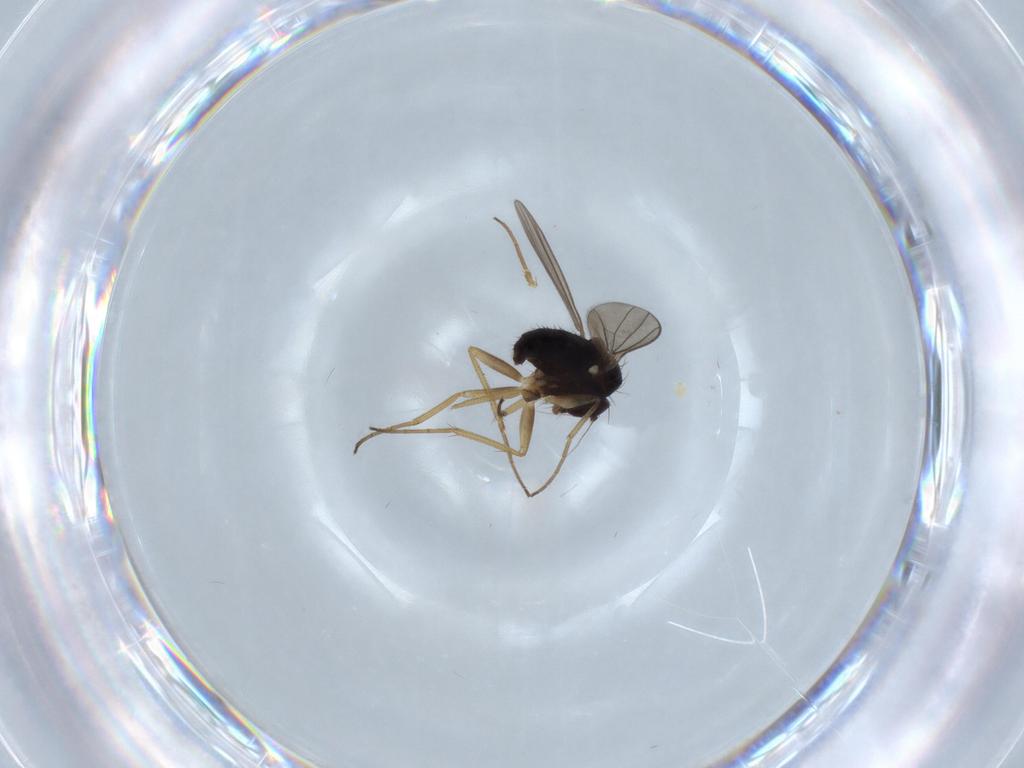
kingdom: Animalia
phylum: Arthropoda
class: Insecta
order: Diptera
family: Dolichopodidae
